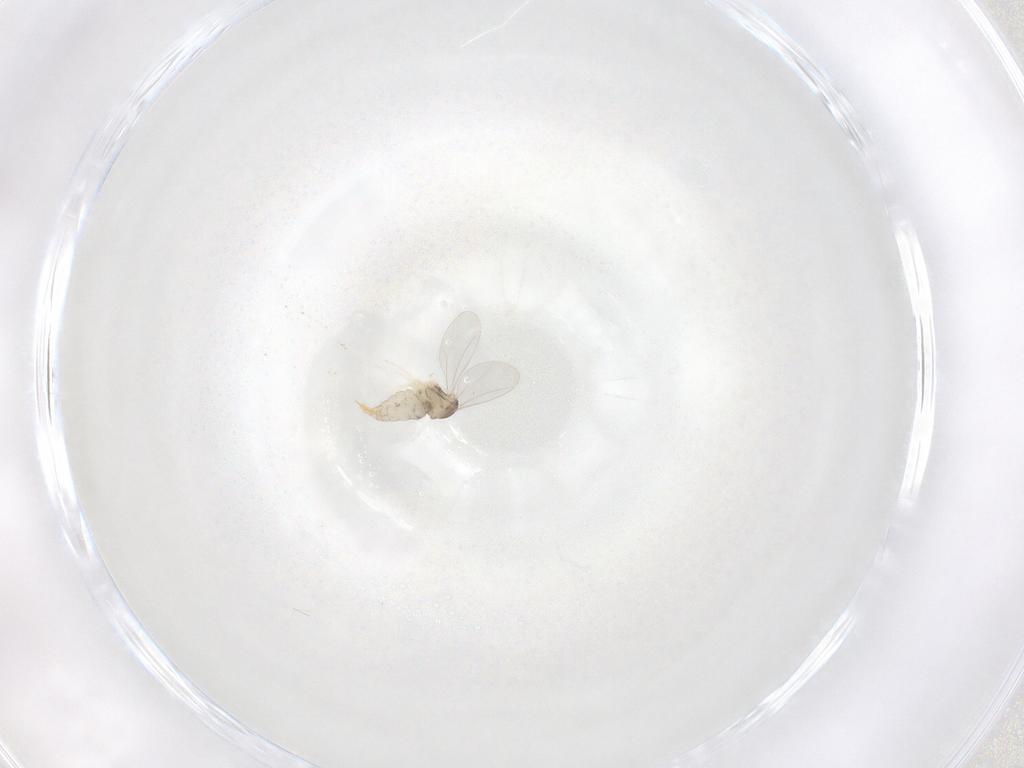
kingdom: Animalia
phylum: Arthropoda
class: Insecta
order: Diptera
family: Cecidomyiidae
